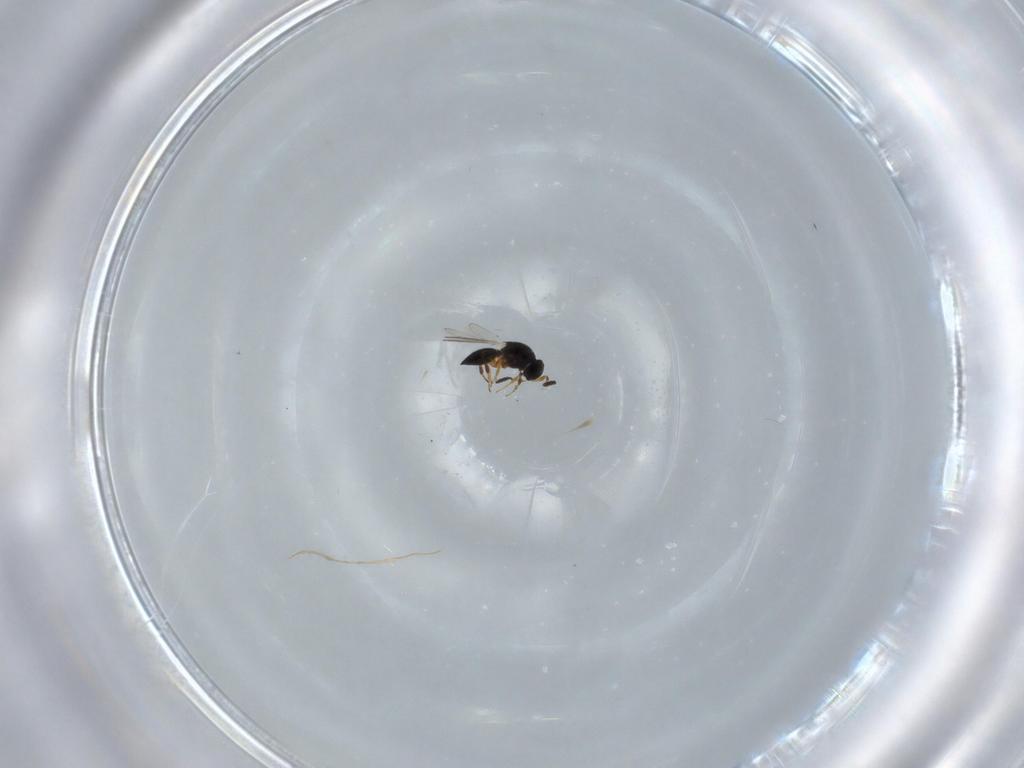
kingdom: Animalia
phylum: Arthropoda
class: Insecta
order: Hymenoptera
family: Platygastridae
